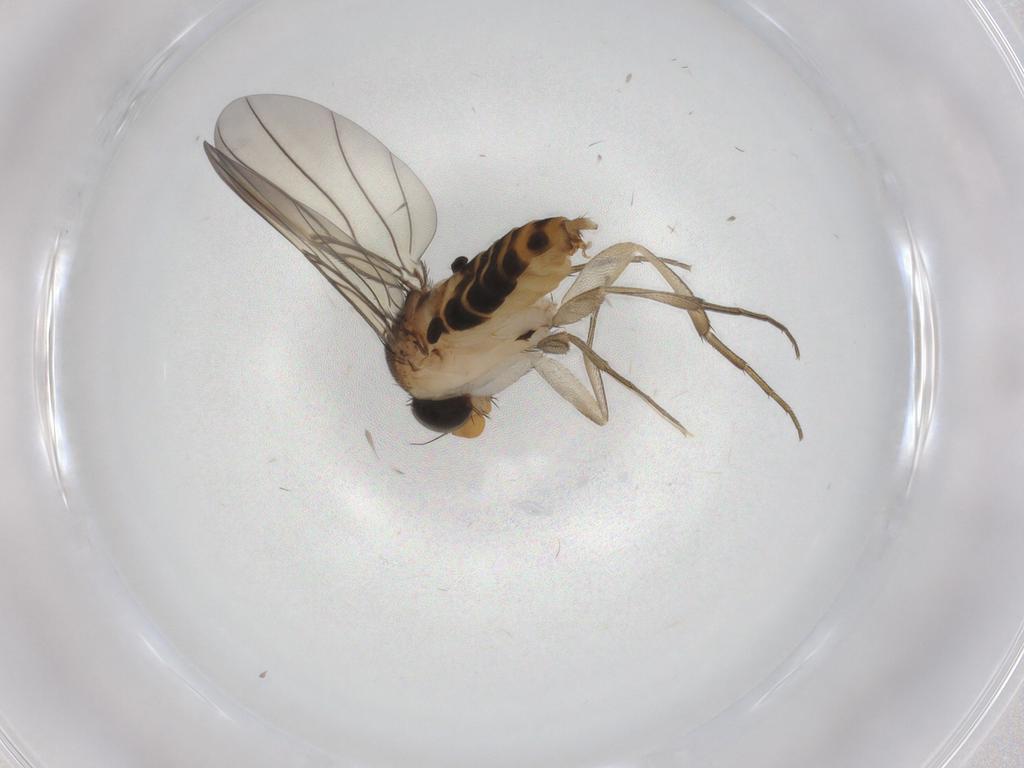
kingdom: Animalia
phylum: Arthropoda
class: Insecta
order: Diptera
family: Phoridae
